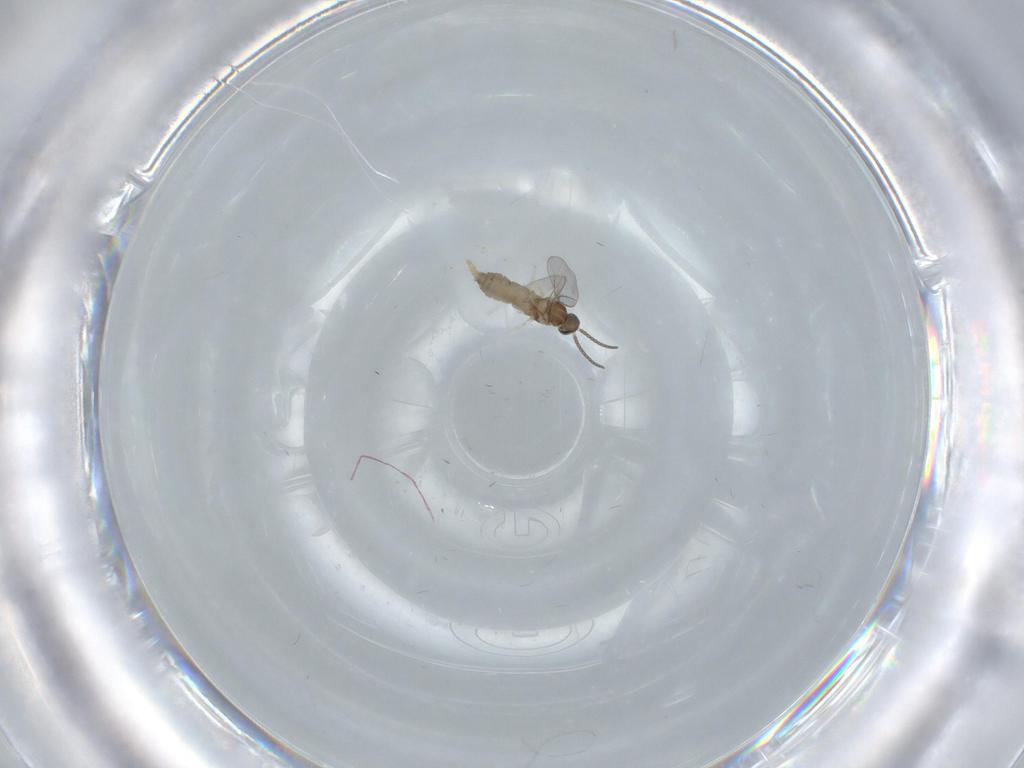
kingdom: Animalia
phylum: Arthropoda
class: Insecta
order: Diptera
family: Cecidomyiidae
